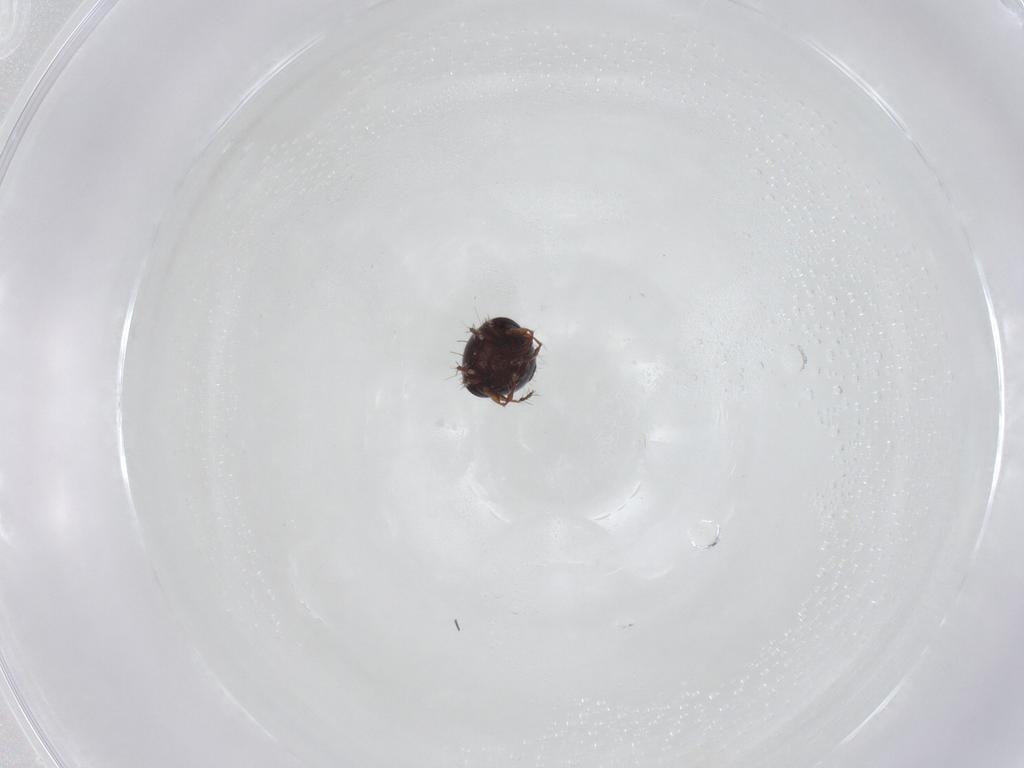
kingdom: Animalia
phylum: Arthropoda
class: Arachnida
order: Sarcoptiformes
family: Ceratoppiidae
